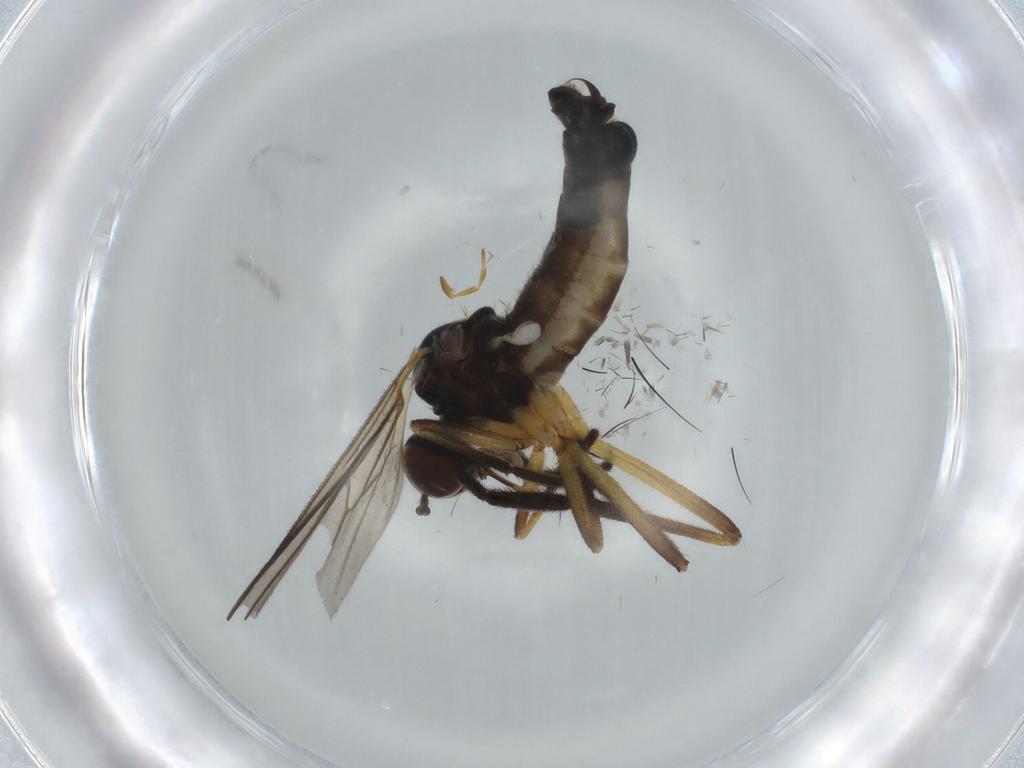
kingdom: Animalia
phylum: Arthropoda
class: Insecta
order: Diptera
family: Empididae
